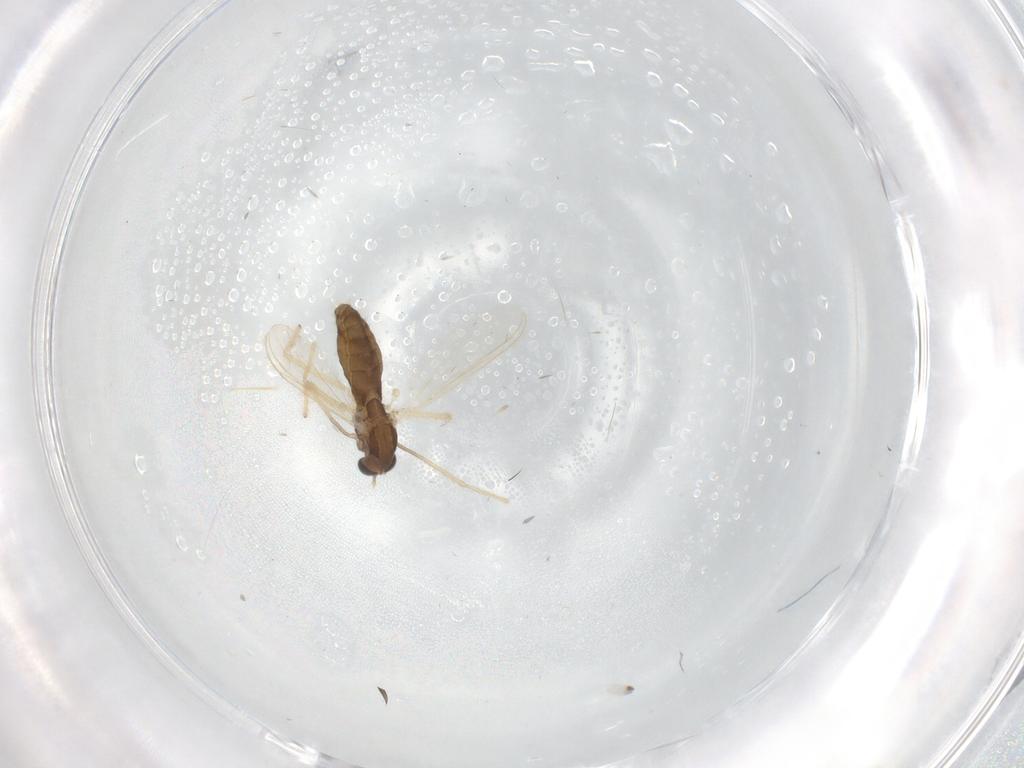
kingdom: Animalia
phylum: Arthropoda
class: Insecta
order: Diptera
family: Chironomidae
